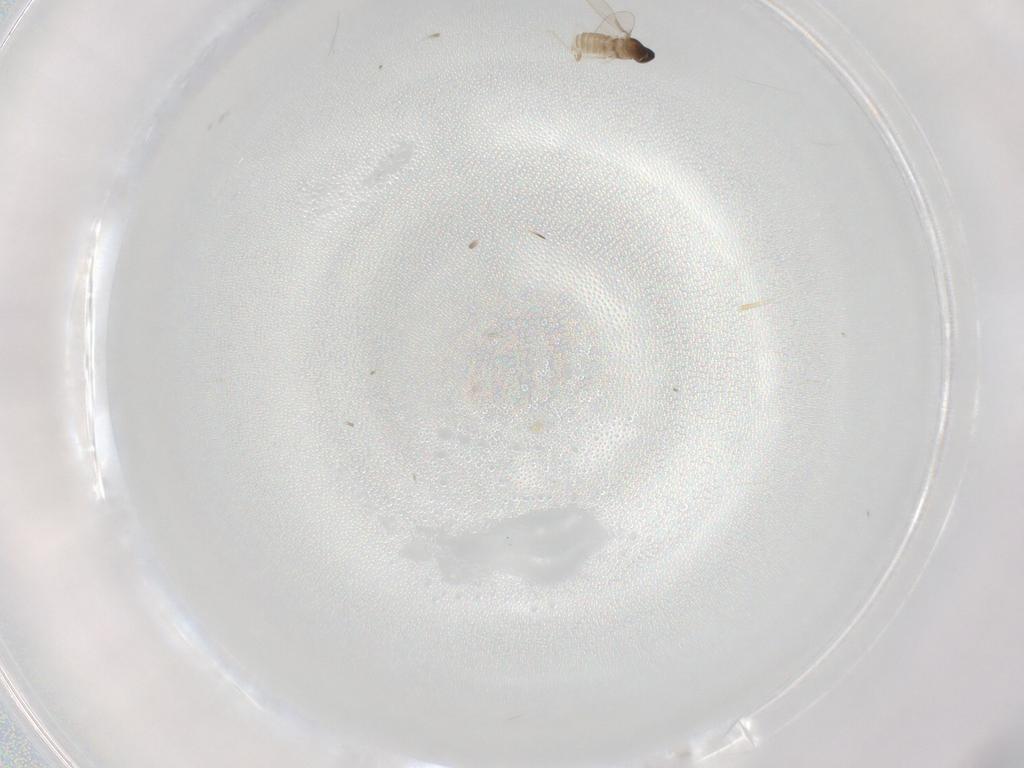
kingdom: Animalia
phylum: Arthropoda
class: Insecta
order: Diptera
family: Cecidomyiidae
